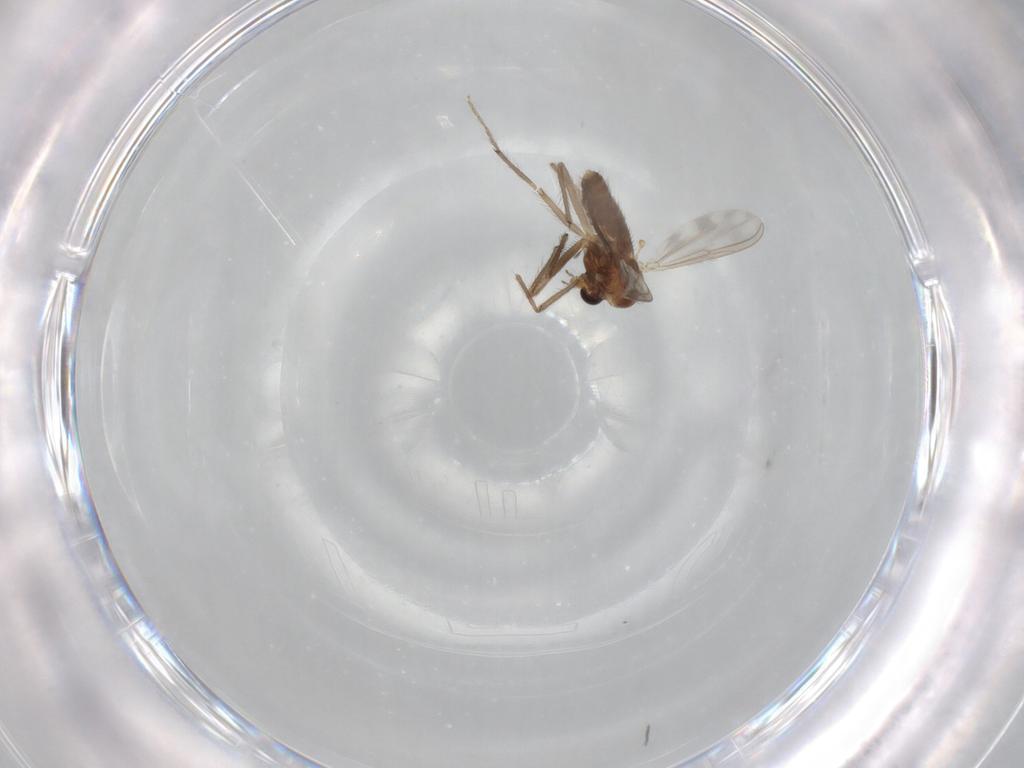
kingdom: Animalia
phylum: Arthropoda
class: Insecta
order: Diptera
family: Chironomidae
